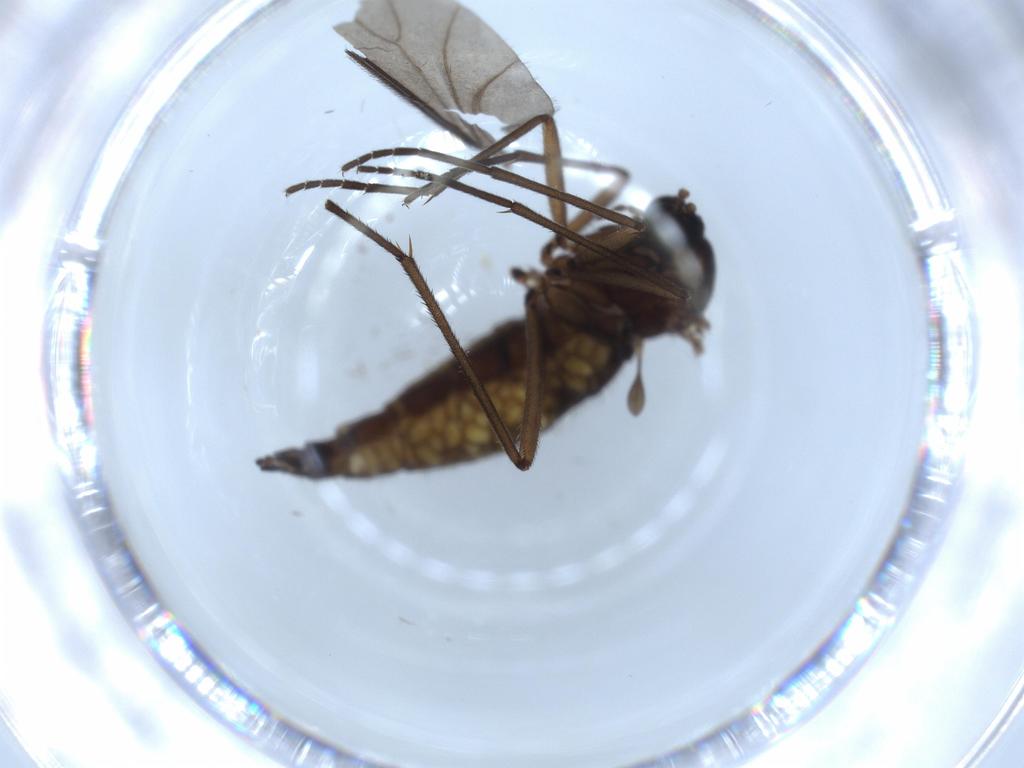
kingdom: Animalia
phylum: Arthropoda
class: Insecta
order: Diptera
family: Sciaridae
